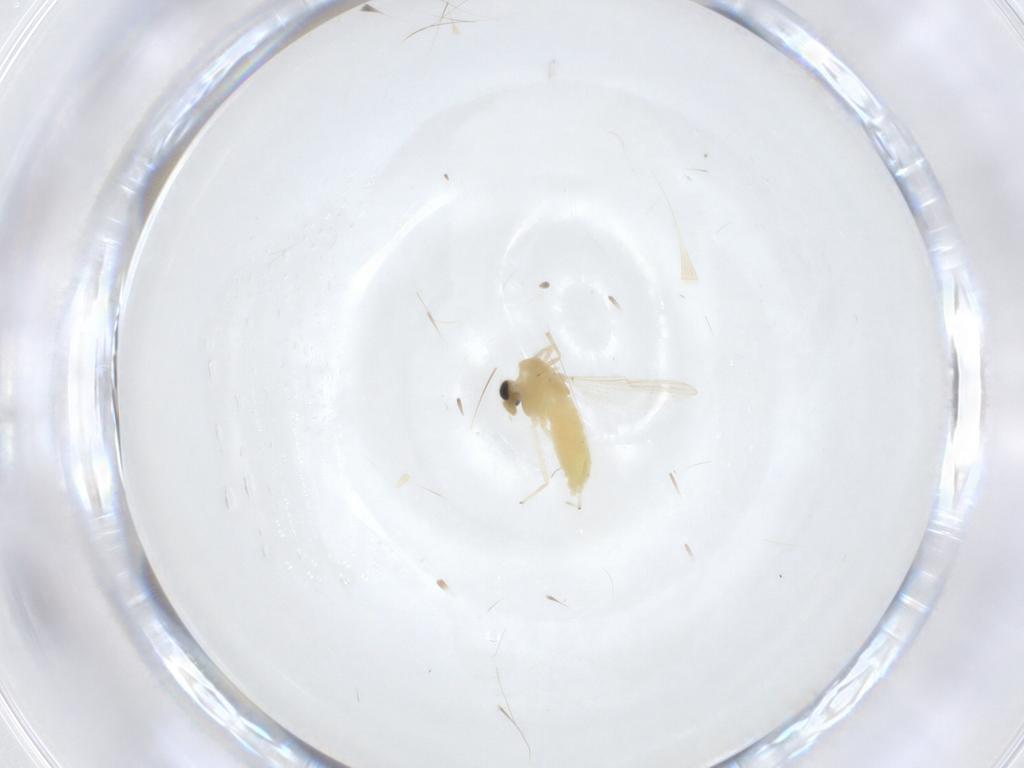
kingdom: Animalia
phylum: Arthropoda
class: Insecta
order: Diptera
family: Chironomidae
